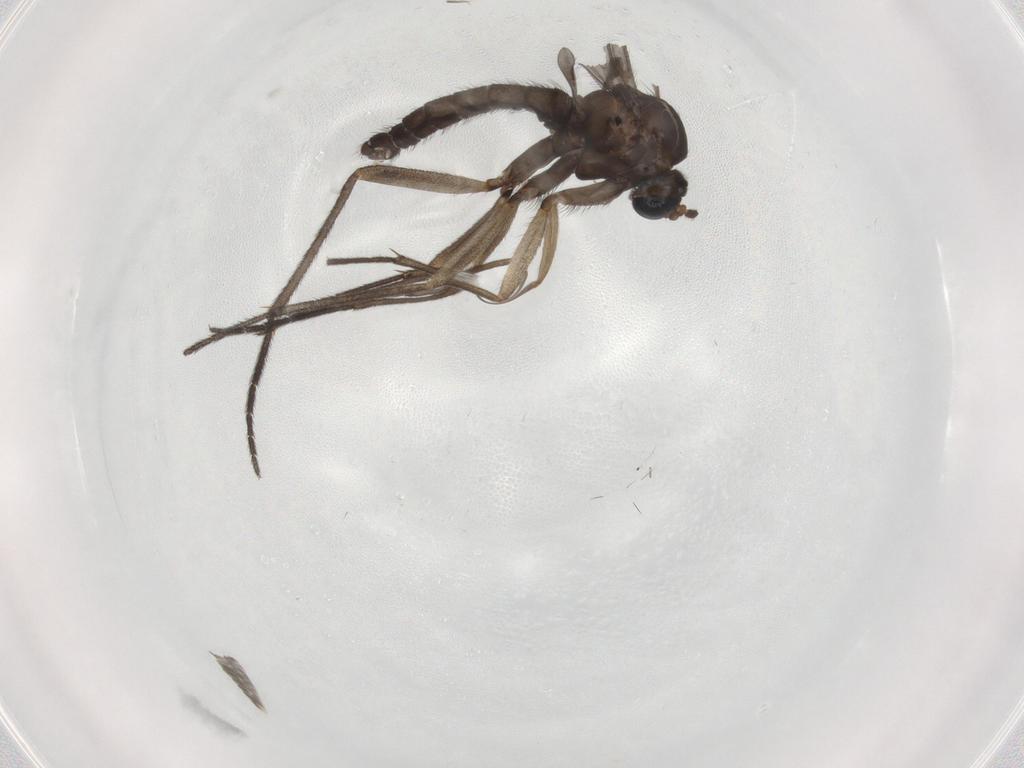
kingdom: Animalia
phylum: Arthropoda
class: Insecta
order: Diptera
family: Sciaridae
